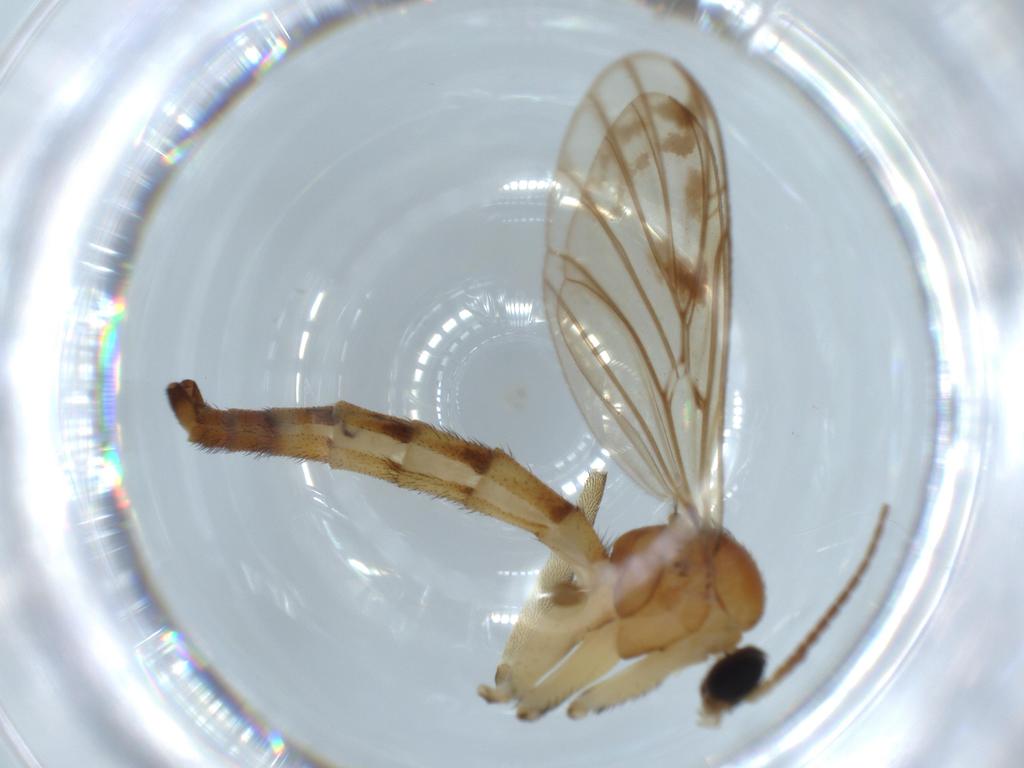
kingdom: Animalia
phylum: Arthropoda
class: Insecta
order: Diptera
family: Chironomidae
